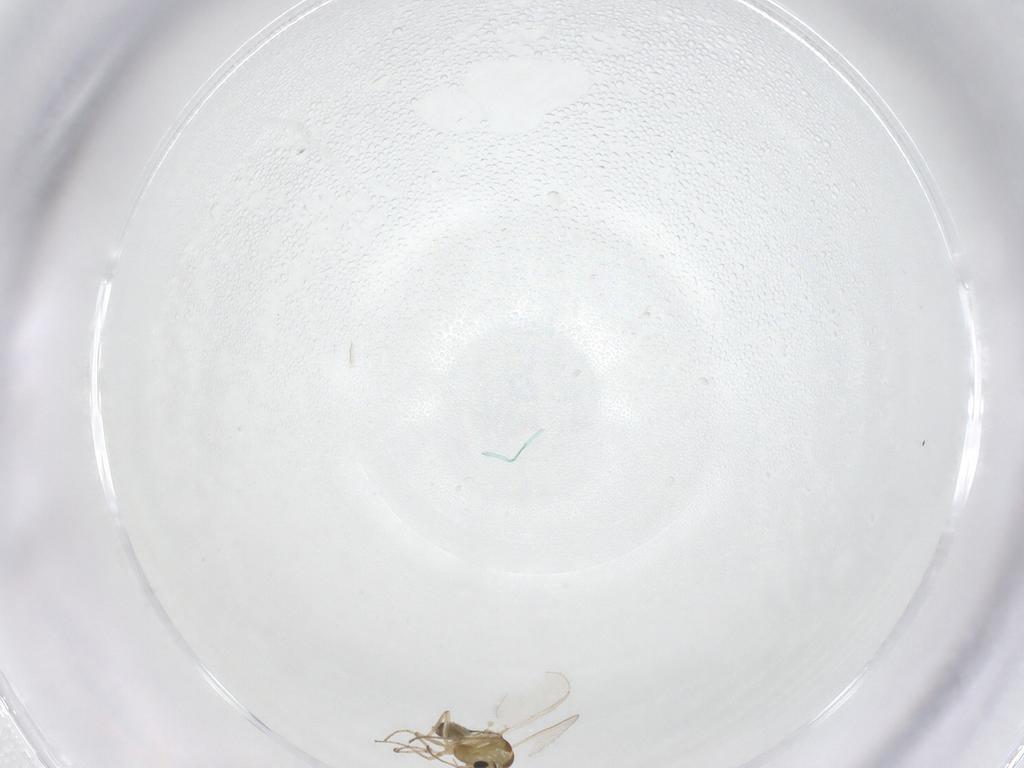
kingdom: Animalia
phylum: Arthropoda
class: Insecta
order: Diptera
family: Chironomidae
